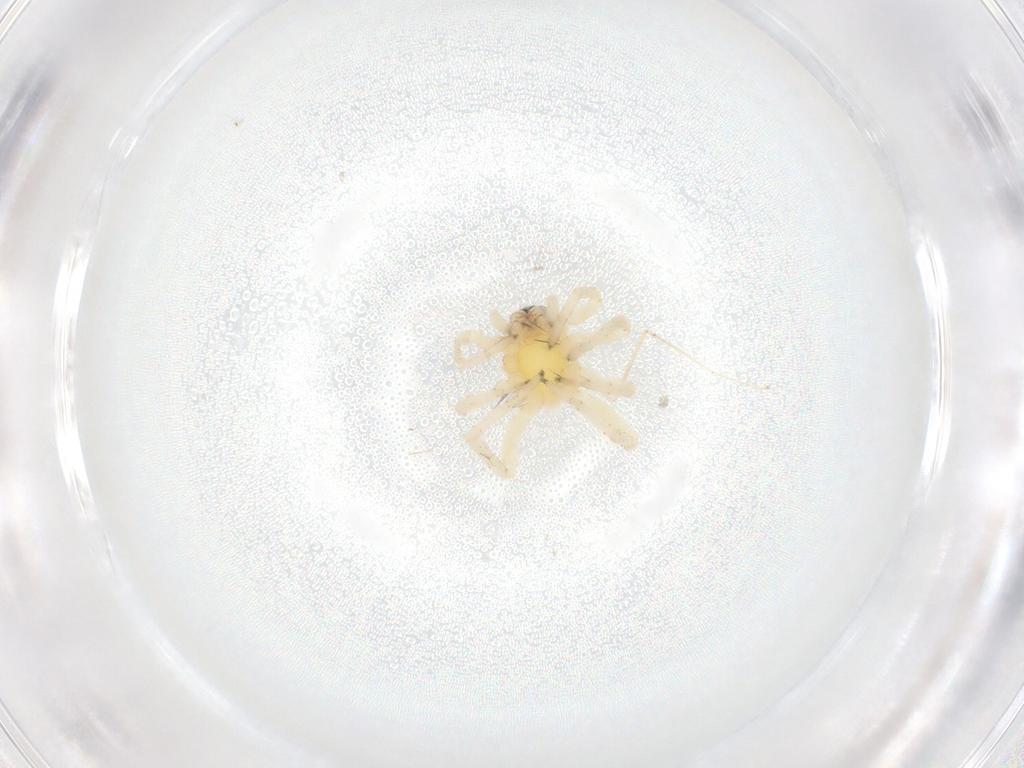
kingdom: Animalia
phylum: Arthropoda
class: Arachnida
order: Araneae
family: Clubionidae
